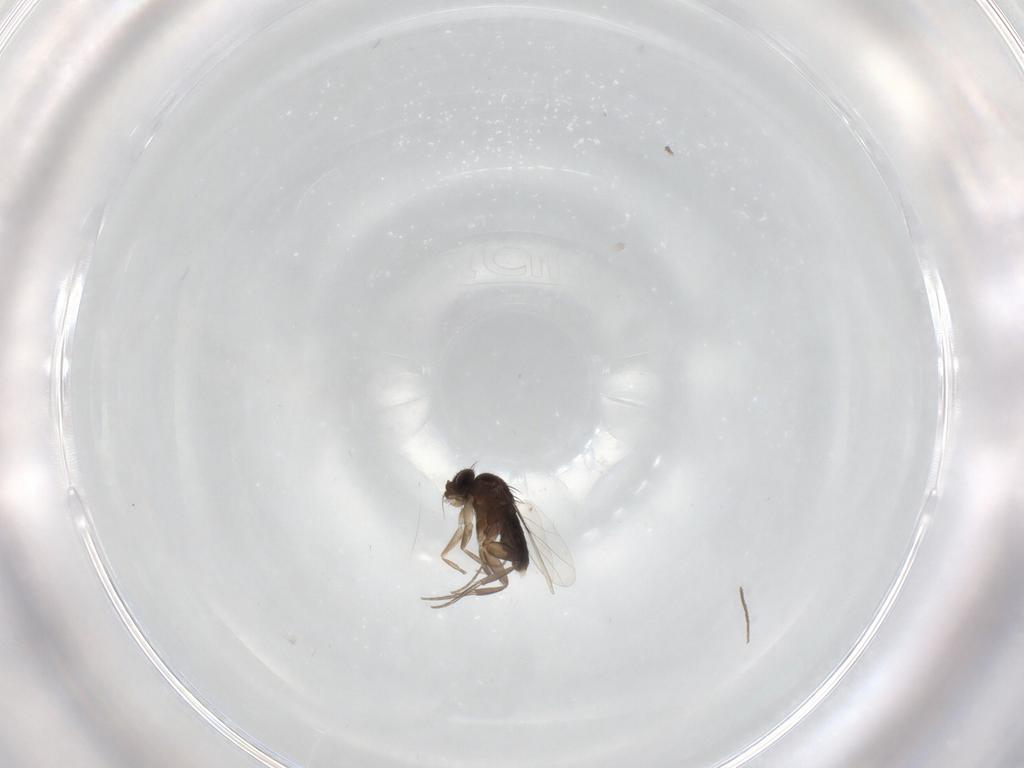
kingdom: Animalia
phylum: Arthropoda
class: Insecta
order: Diptera
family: Phoridae
